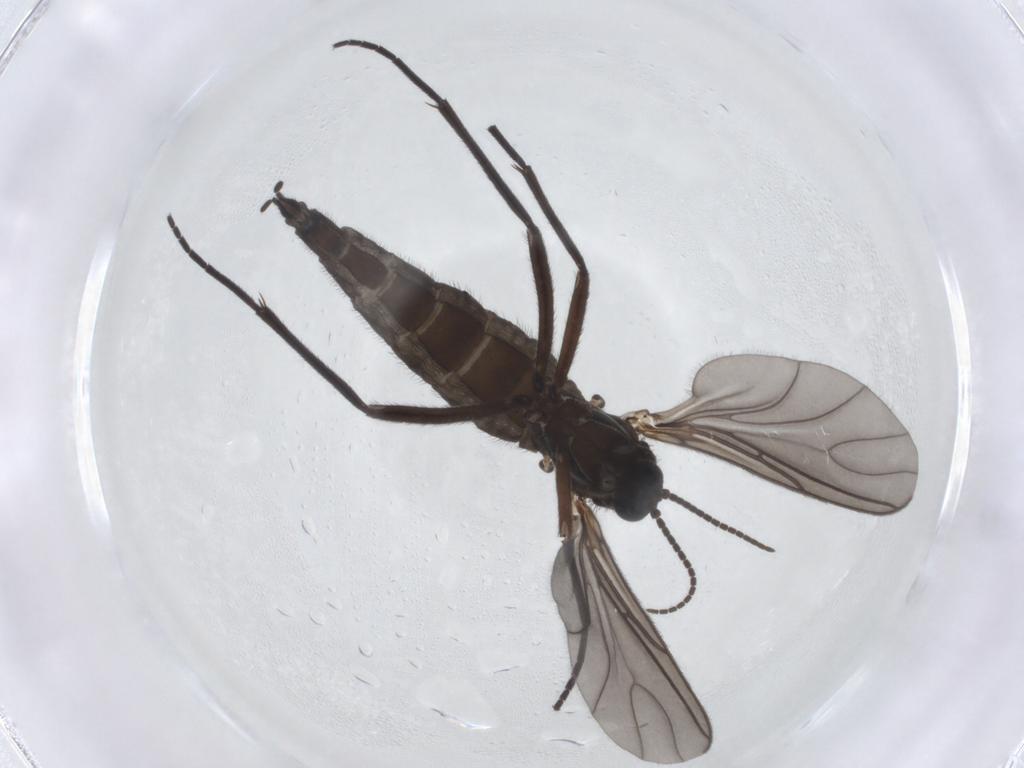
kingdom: Animalia
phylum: Arthropoda
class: Insecta
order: Diptera
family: Sciaridae
